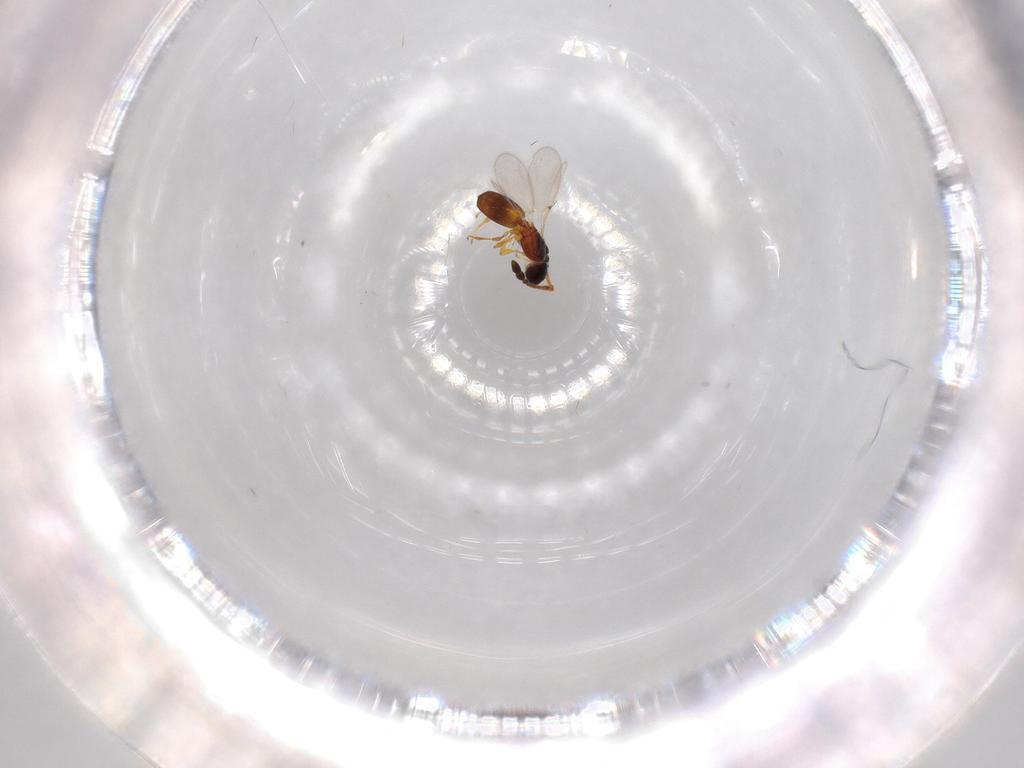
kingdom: Animalia
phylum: Arthropoda
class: Insecta
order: Hymenoptera
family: Diapriidae
